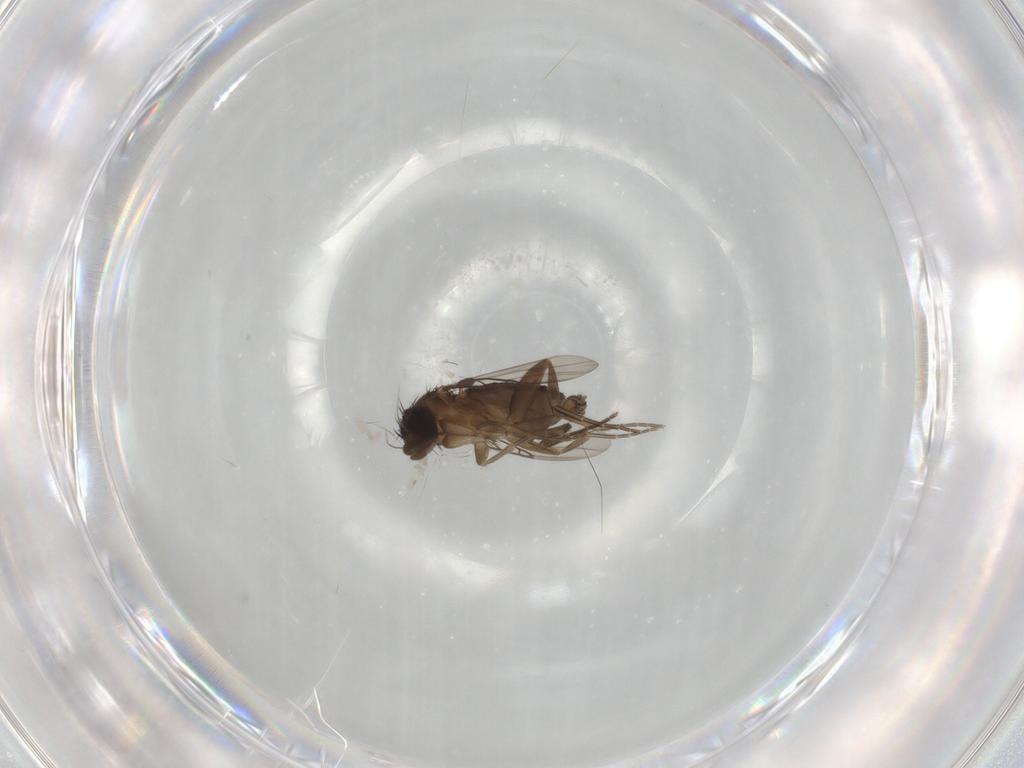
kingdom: Animalia
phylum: Arthropoda
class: Insecta
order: Diptera
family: Phoridae
